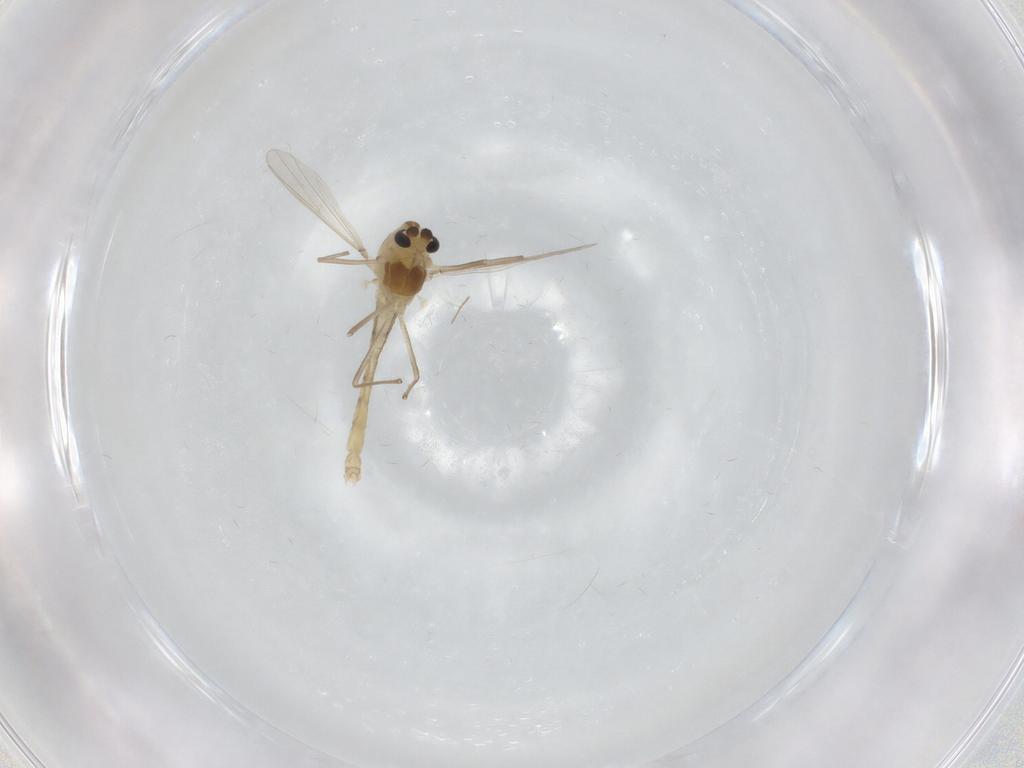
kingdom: Animalia
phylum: Arthropoda
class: Insecta
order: Diptera
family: Chironomidae
